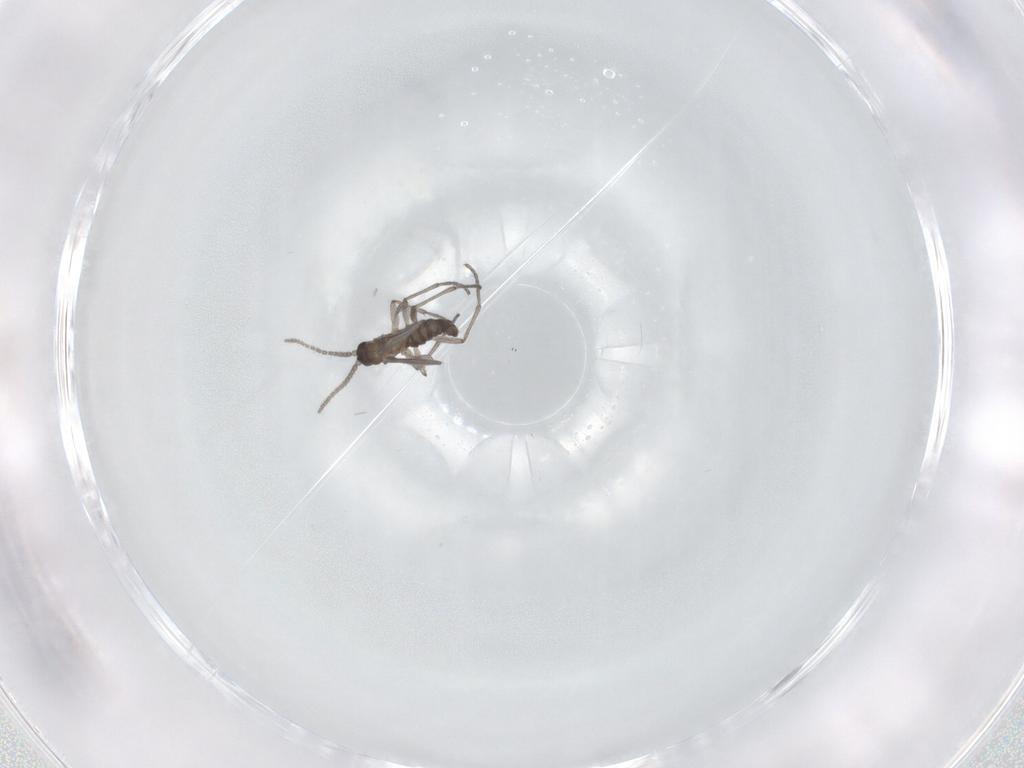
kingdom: Animalia
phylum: Arthropoda
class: Insecta
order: Diptera
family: Sciaridae
